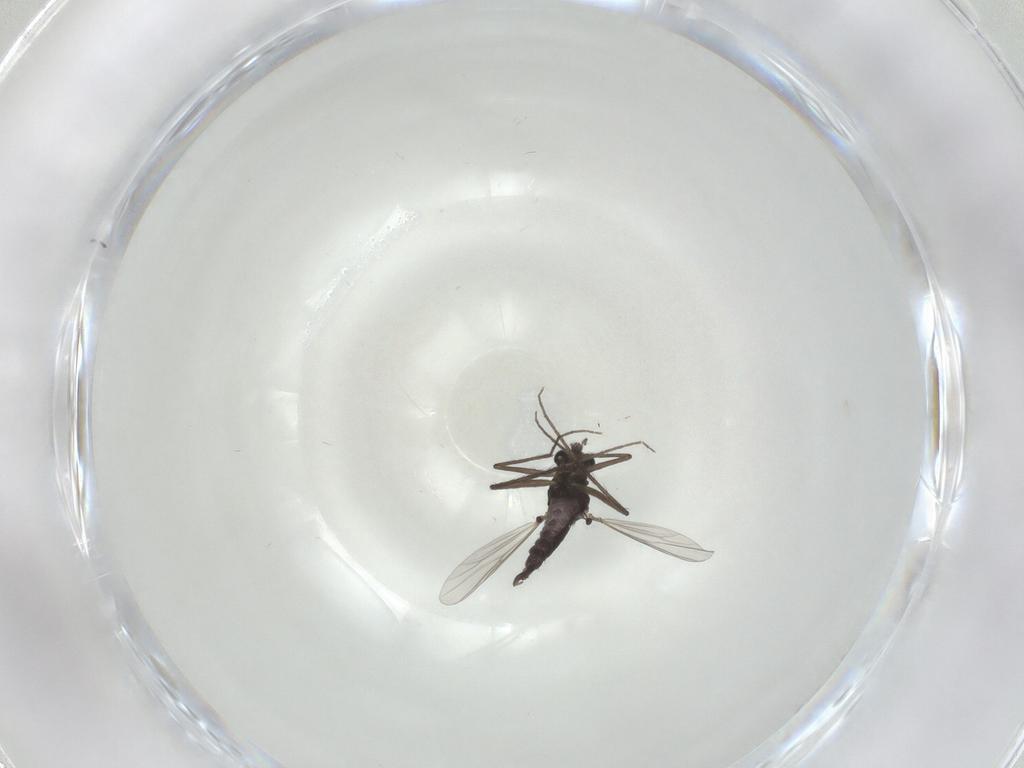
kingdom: Animalia
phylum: Arthropoda
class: Insecta
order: Diptera
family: Chironomidae
